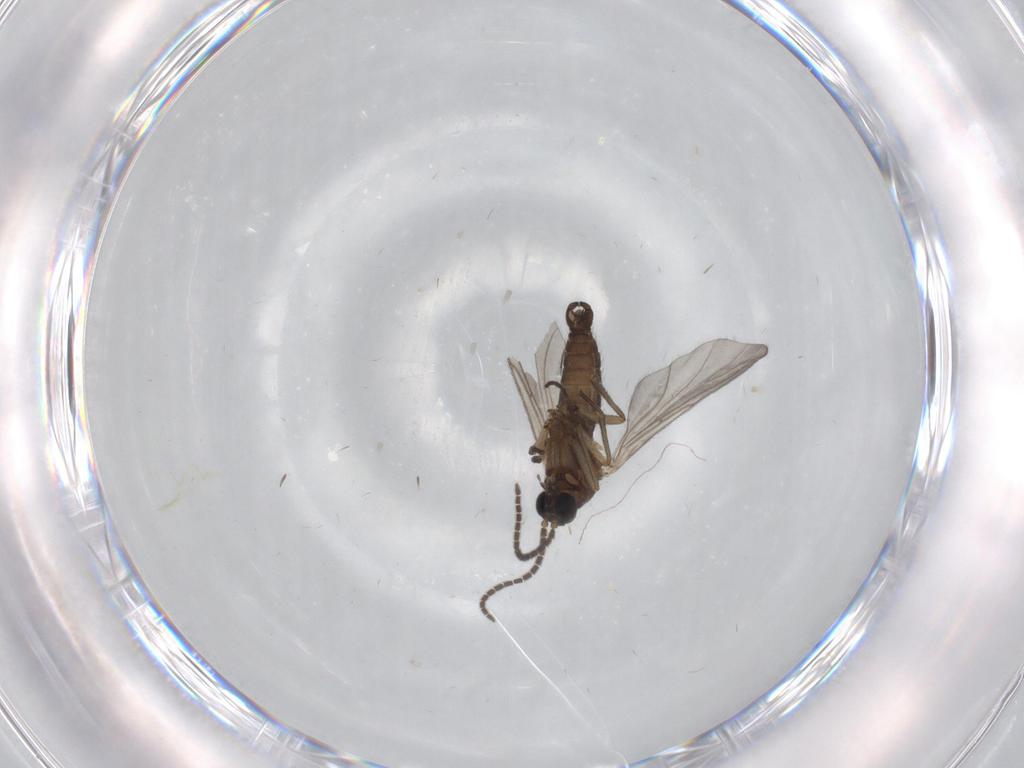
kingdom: Animalia
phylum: Arthropoda
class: Insecta
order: Diptera
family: Sciaridae
